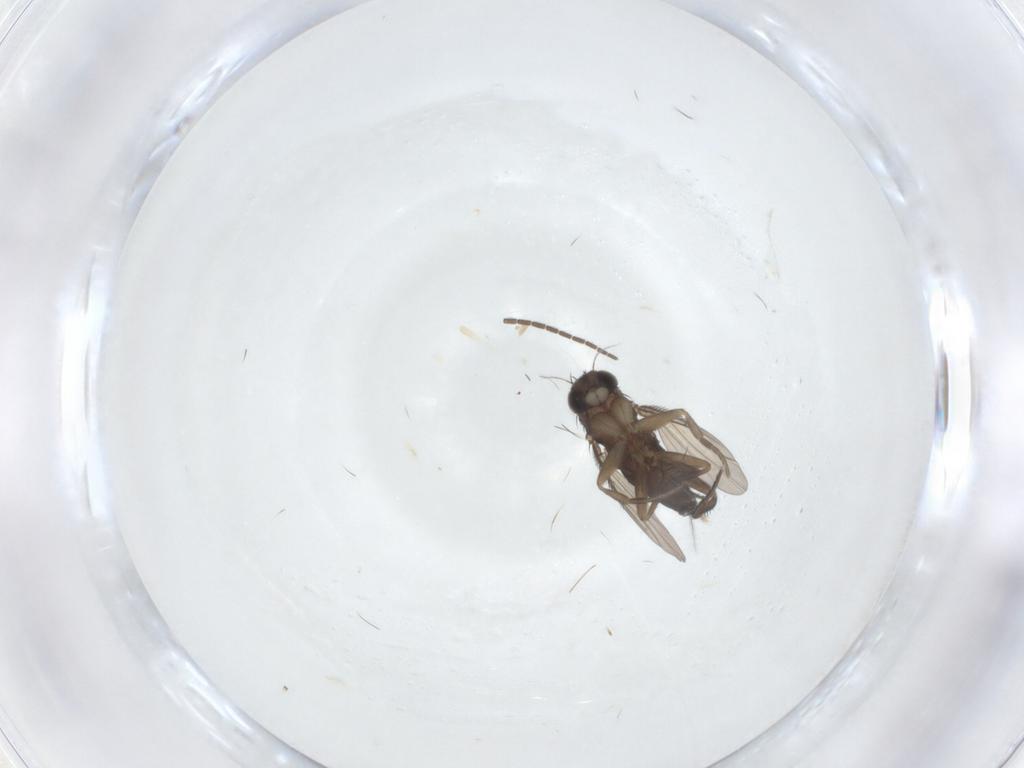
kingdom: Animalia
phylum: Arthropoda
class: Insecta
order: Diptera
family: Phoridae
